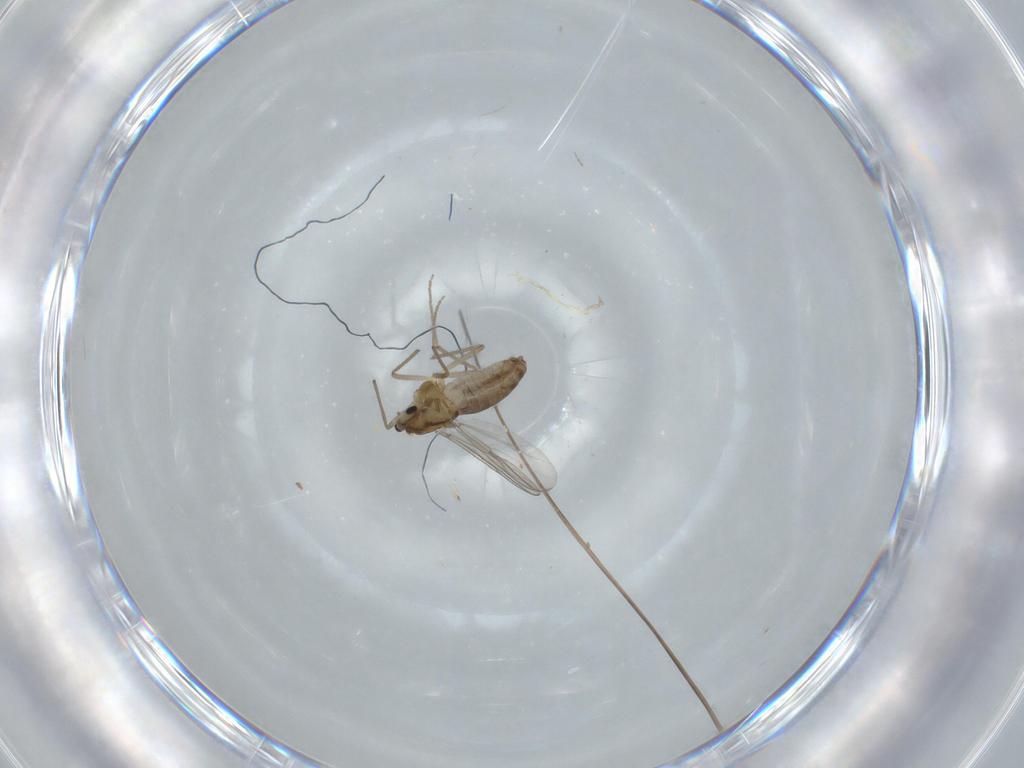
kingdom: Animalia
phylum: Arthropoda
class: Insecta
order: Diptera
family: Chironomidae
